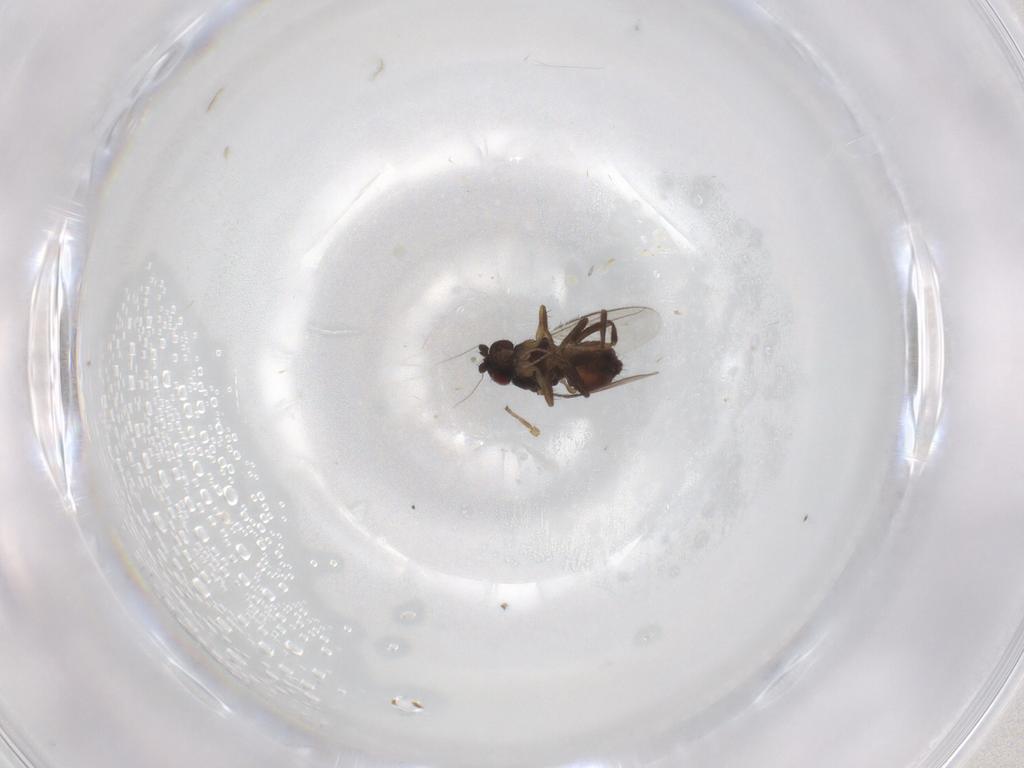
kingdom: Animalia
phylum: Arthropoda
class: Insecta
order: Diptera
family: Sphaeroceridae
